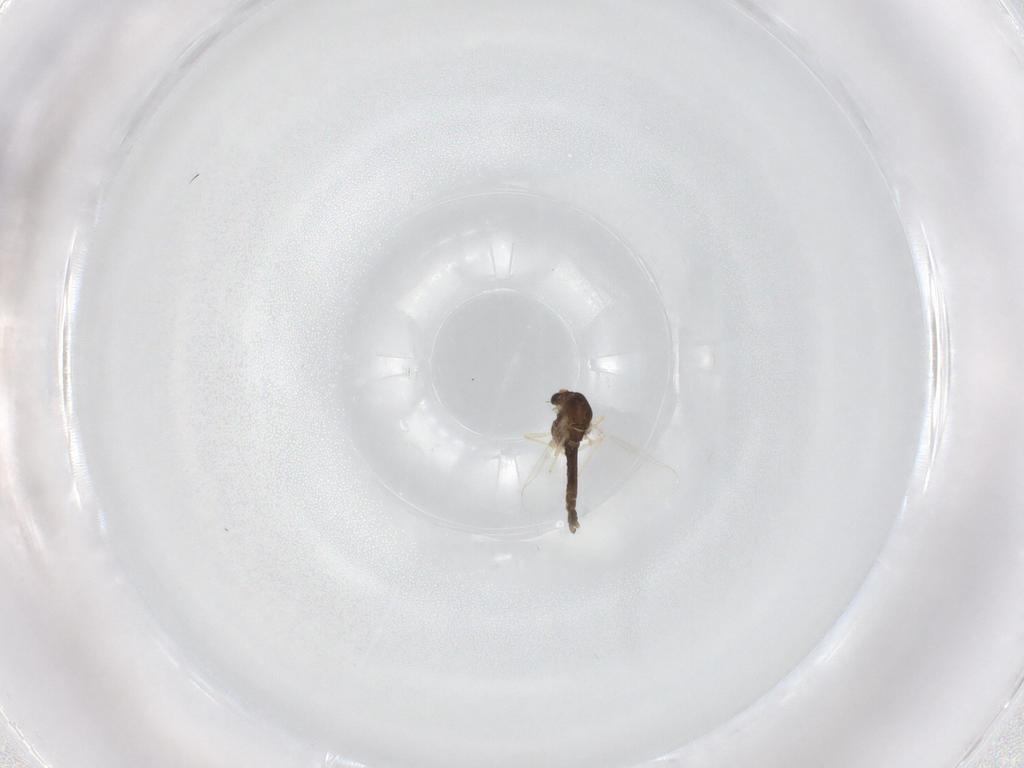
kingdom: Animalia
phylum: Arthropoda
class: Insecta
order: Diptera
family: Chironomidae
